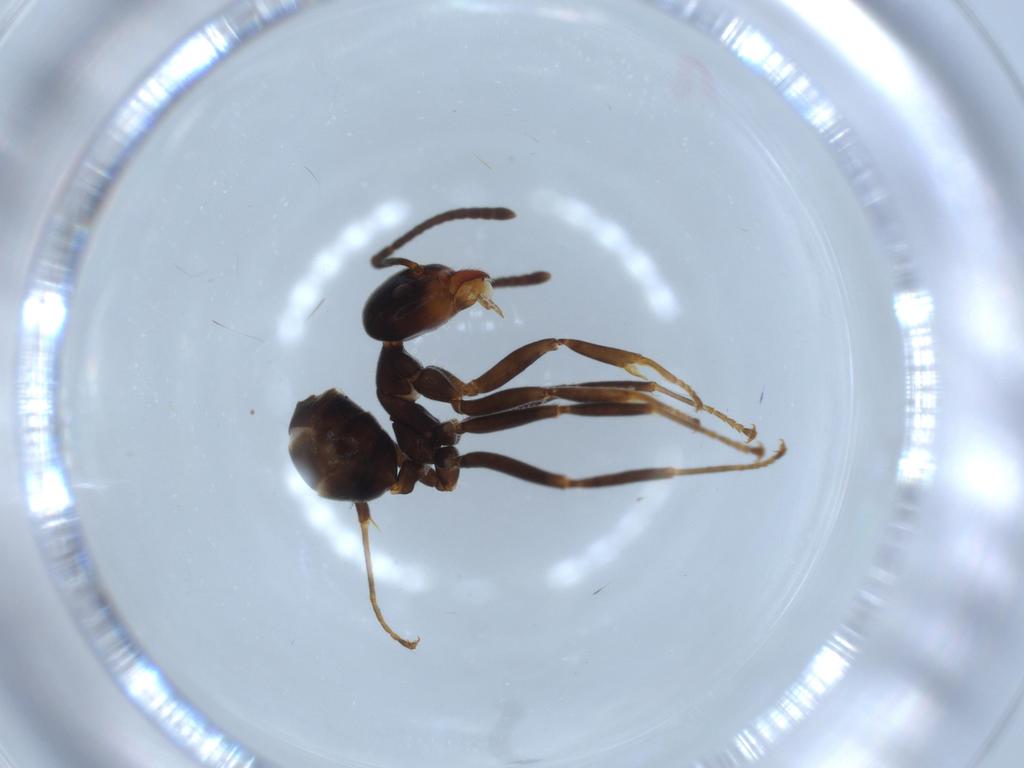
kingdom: Animalia
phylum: Arthropoda
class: Insecta
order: Hymenoptera
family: Formicidae
